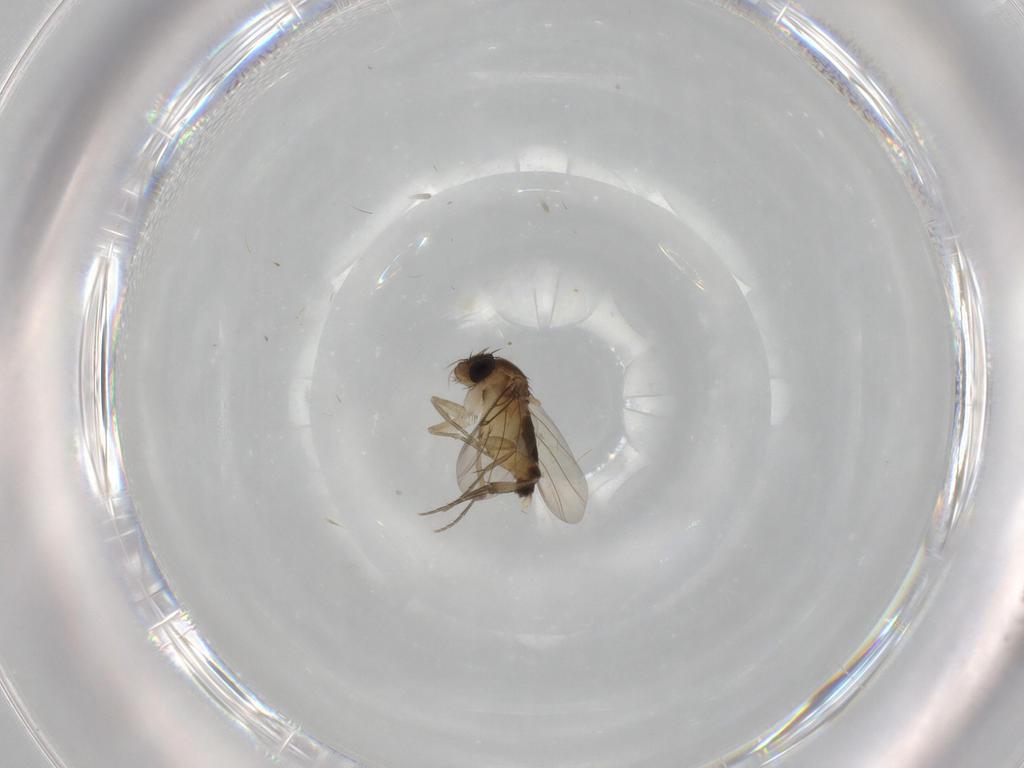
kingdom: Animalia
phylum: Arthropoda
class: Insecta
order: Diptera
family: Phoridae
